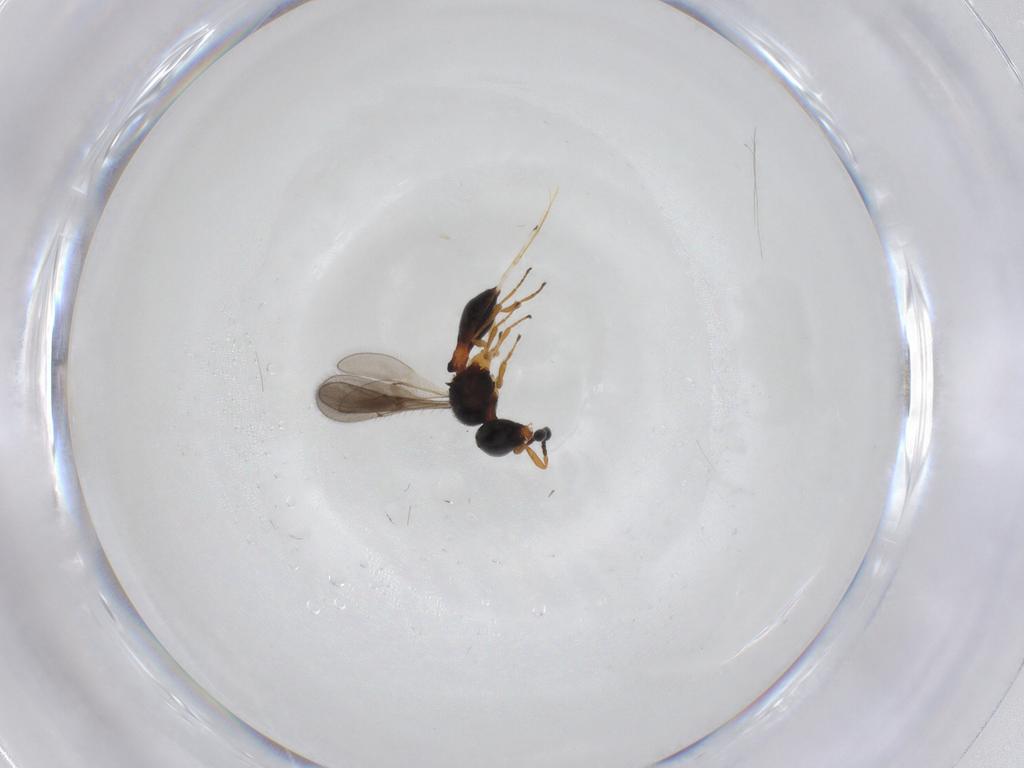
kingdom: Animalia
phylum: Arthropoda
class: Insecta
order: Hymenoptera
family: Scelionidae
